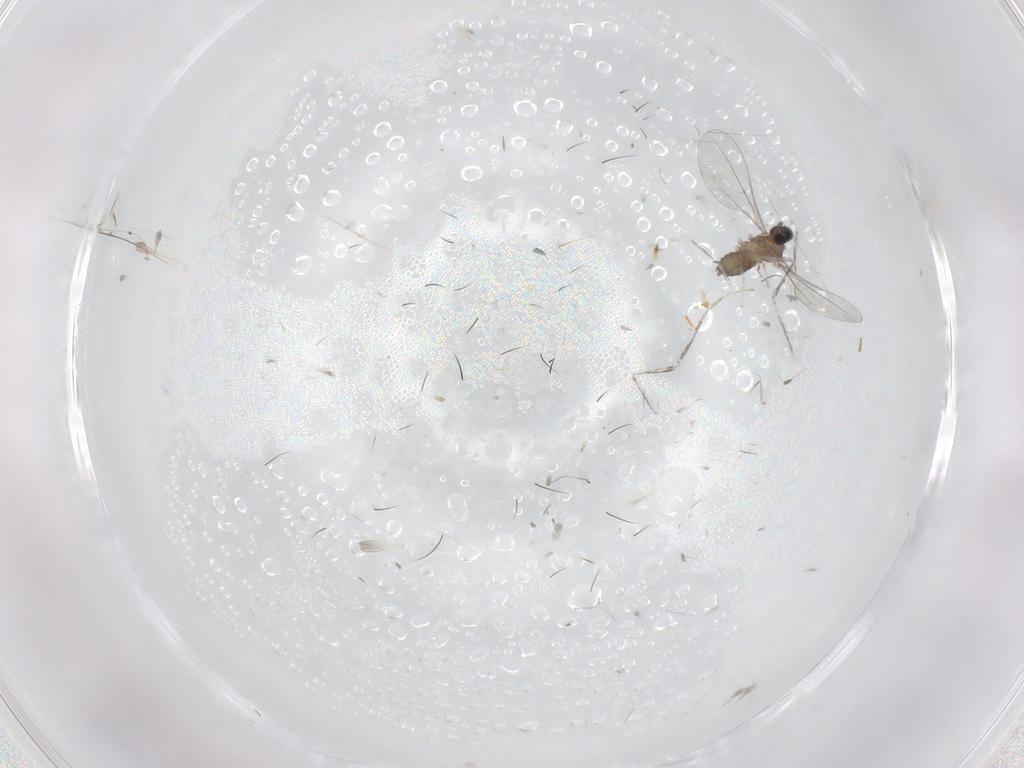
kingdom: Animalia
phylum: Arthropoda
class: Insecta
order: Diptera
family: Cecidomyiidae
